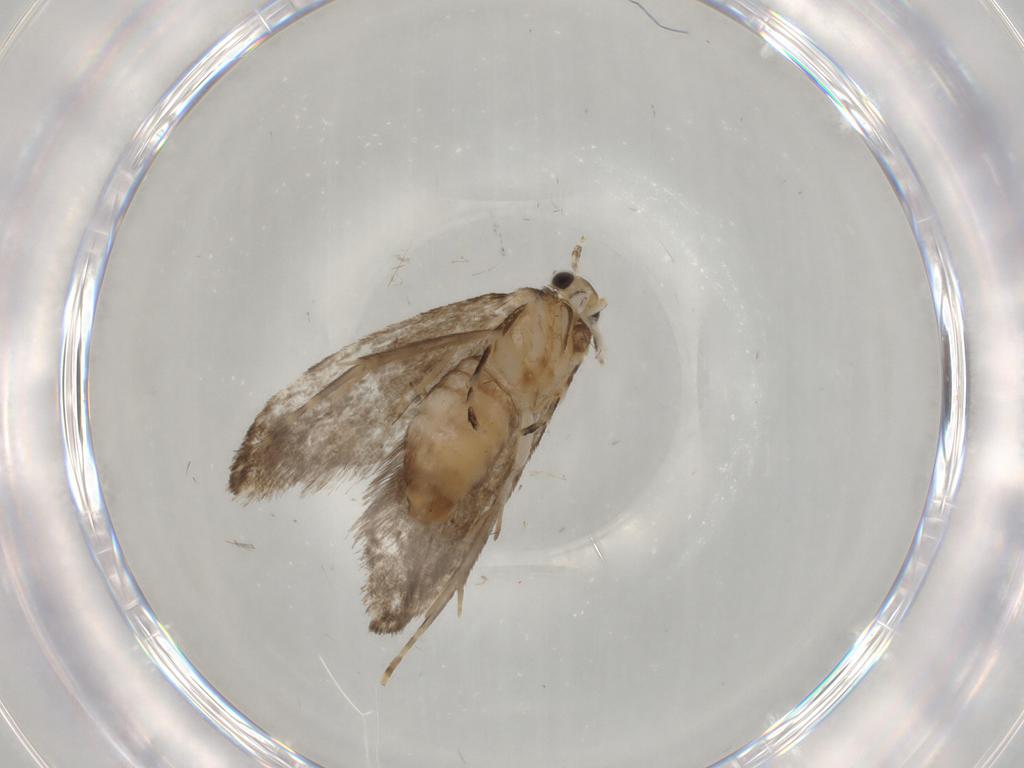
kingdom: Animalia
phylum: Arthropoda
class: Insecta
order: Lepidoptera
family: Tineidae
